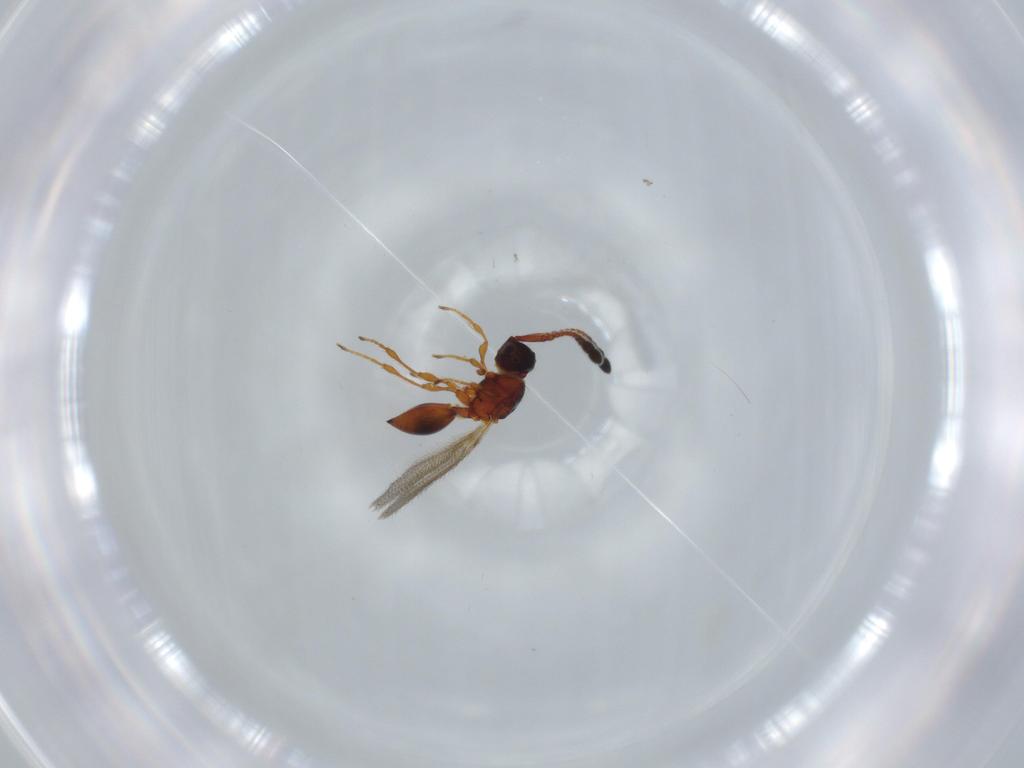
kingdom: Animalia
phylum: Arthropoda
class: Insecta
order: Hymenoptera
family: Diapriidae
